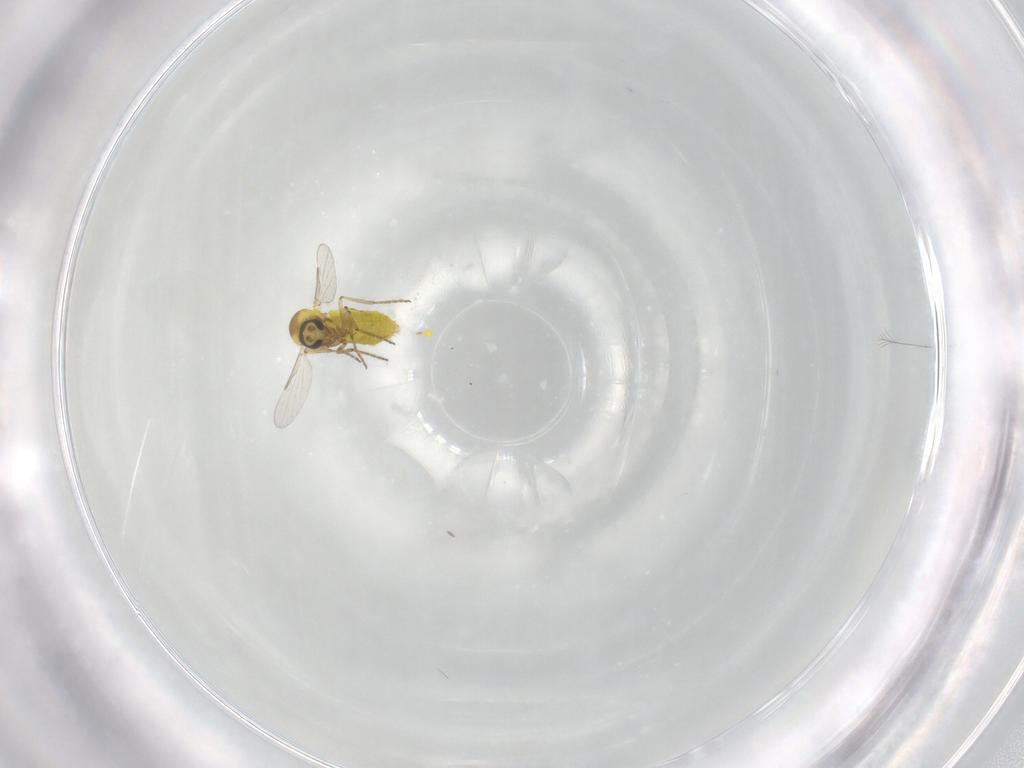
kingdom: Animalia
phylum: Arthropoda
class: Insecta
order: Diptera
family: Ceratopogonidae
